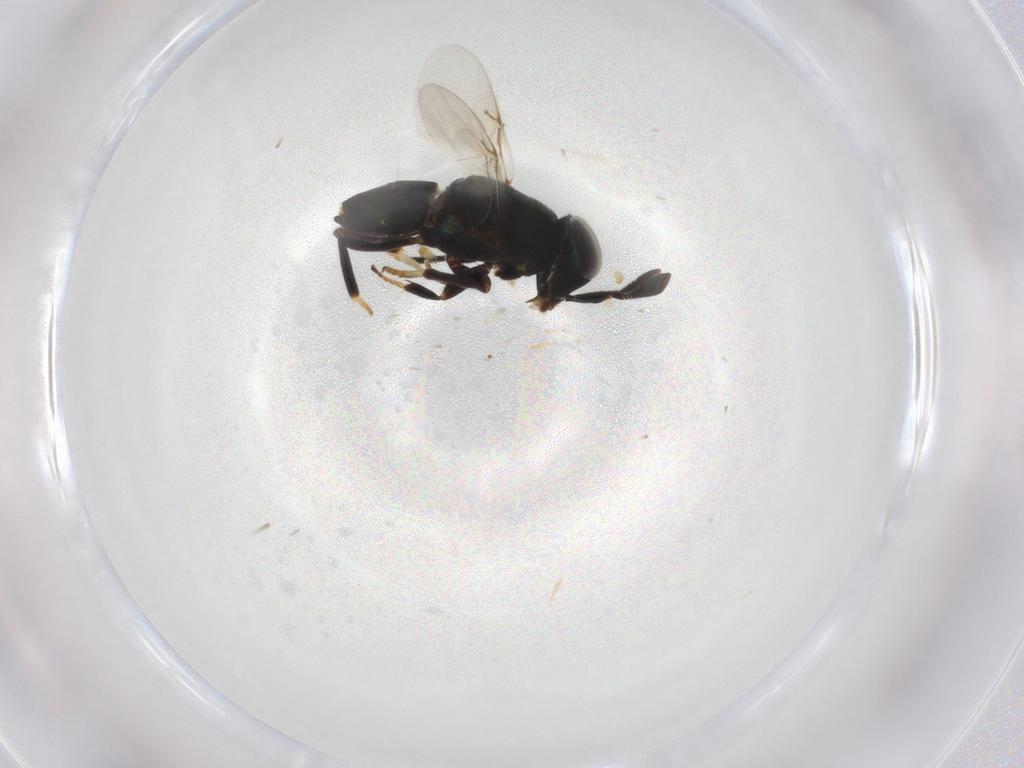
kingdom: Animalia
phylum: Arthropoda
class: Insecta
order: Hymenoptera
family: Encyrtidae
